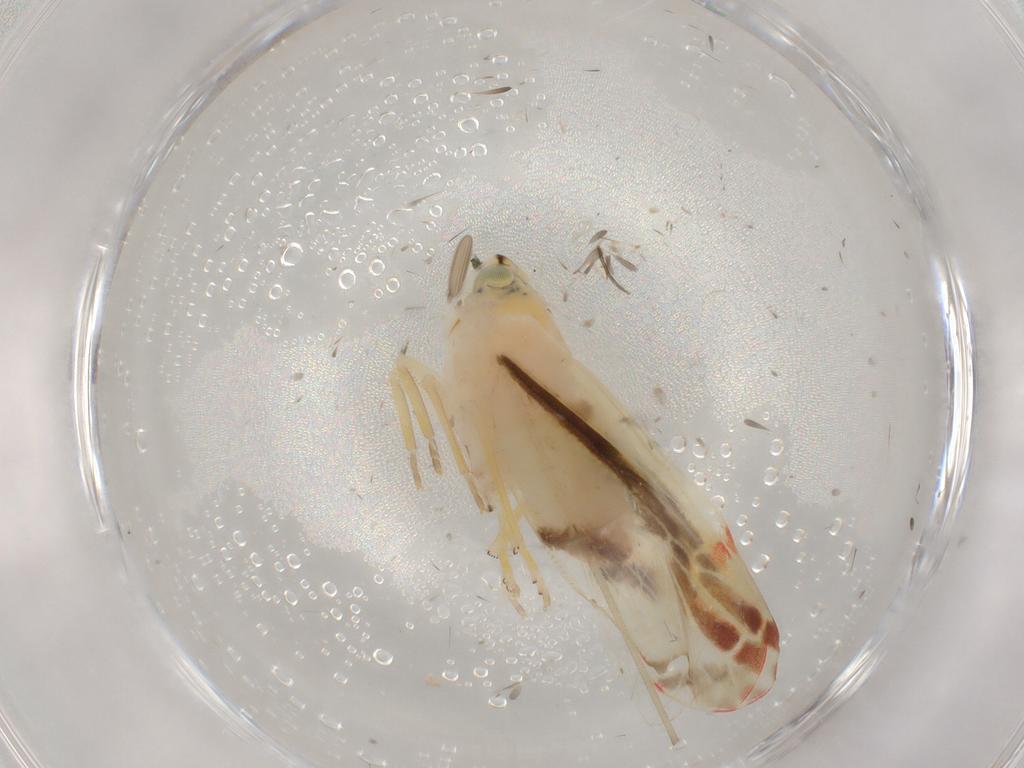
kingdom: Animalia
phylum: Arthropoda
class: Insecta
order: Hemiptera
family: Derbidae
